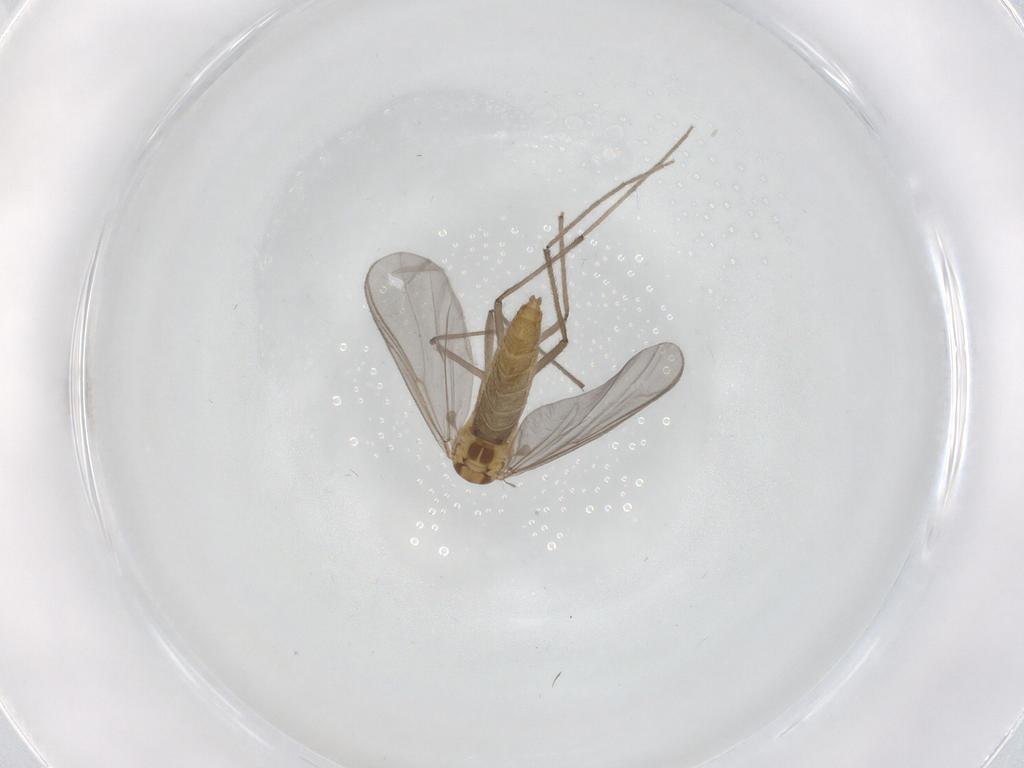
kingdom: Animalia
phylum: Arthropoda
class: Insecta
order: Diptera
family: Chironomidae
